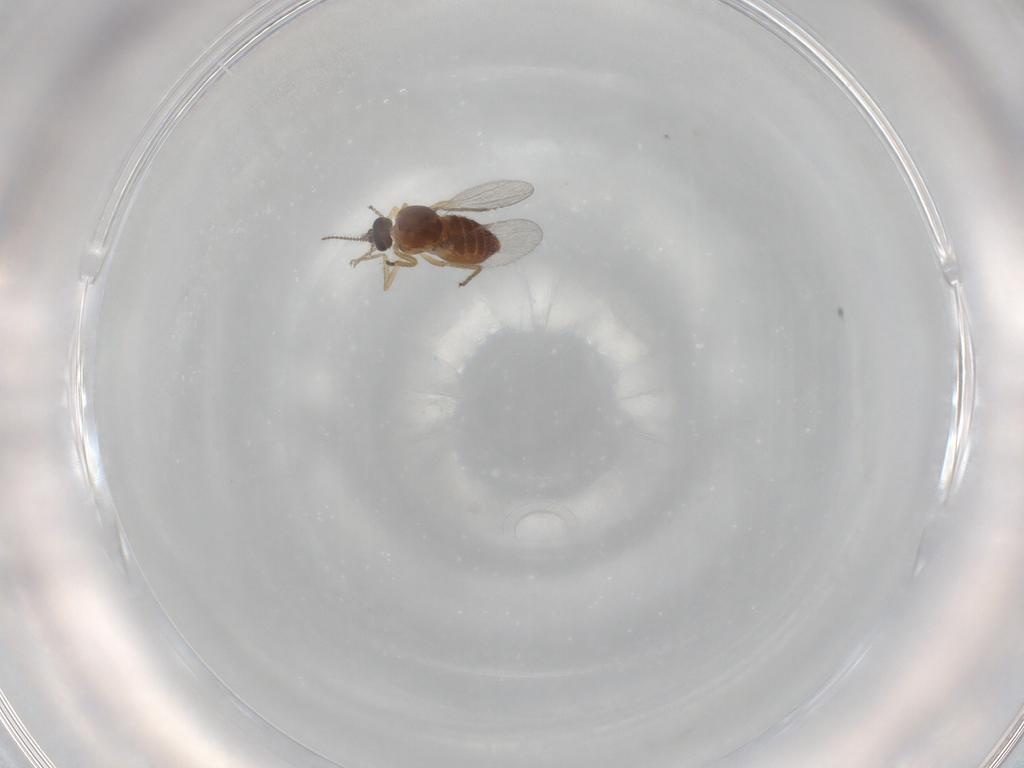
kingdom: Animalia
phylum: Arthropoda
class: Insecta
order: Diptera
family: Ceratopogonidae
